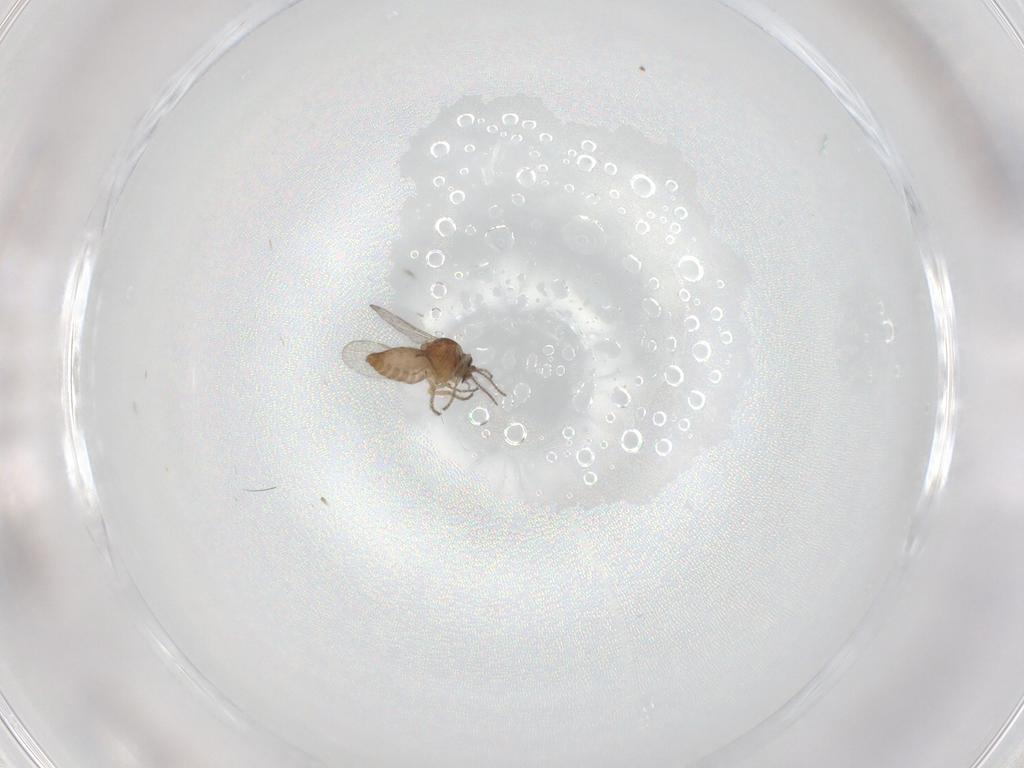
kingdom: Animalia
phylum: Arthropoda
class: Insecta
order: Diptera
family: Ceratopogonidae
